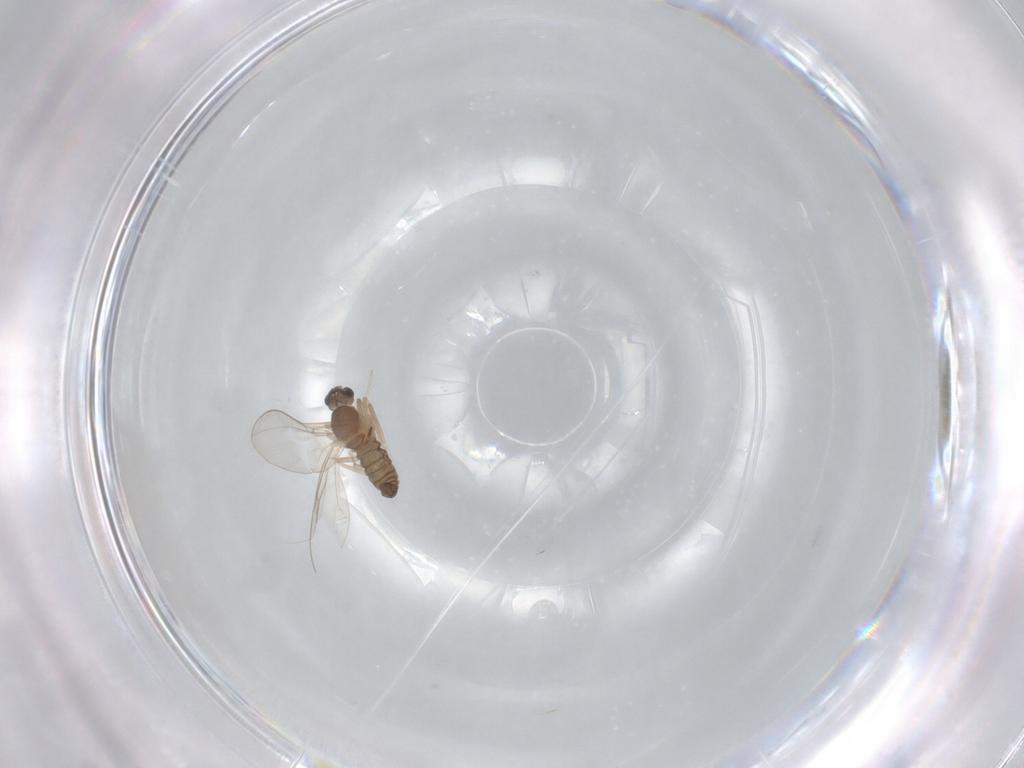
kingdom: Animalia
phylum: Arthropoda
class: Insecta
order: Diptera
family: Cecidomyiidae
